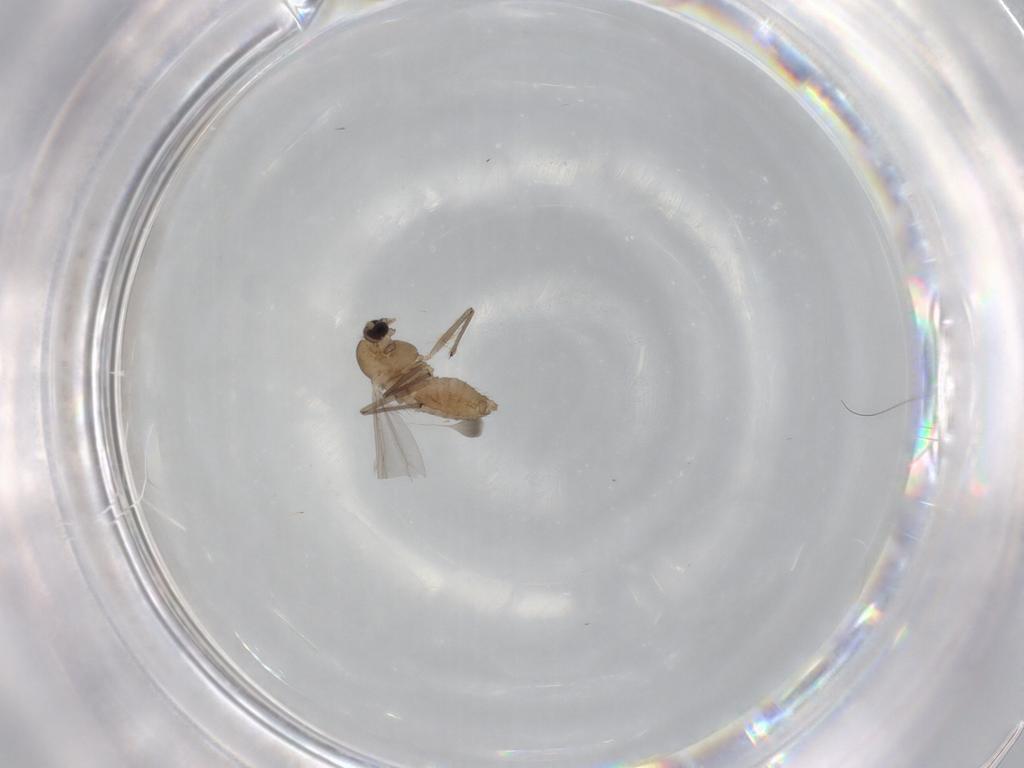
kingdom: Animalia
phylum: Arthropoda
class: Insecta
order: Diptera
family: Chironomidae
